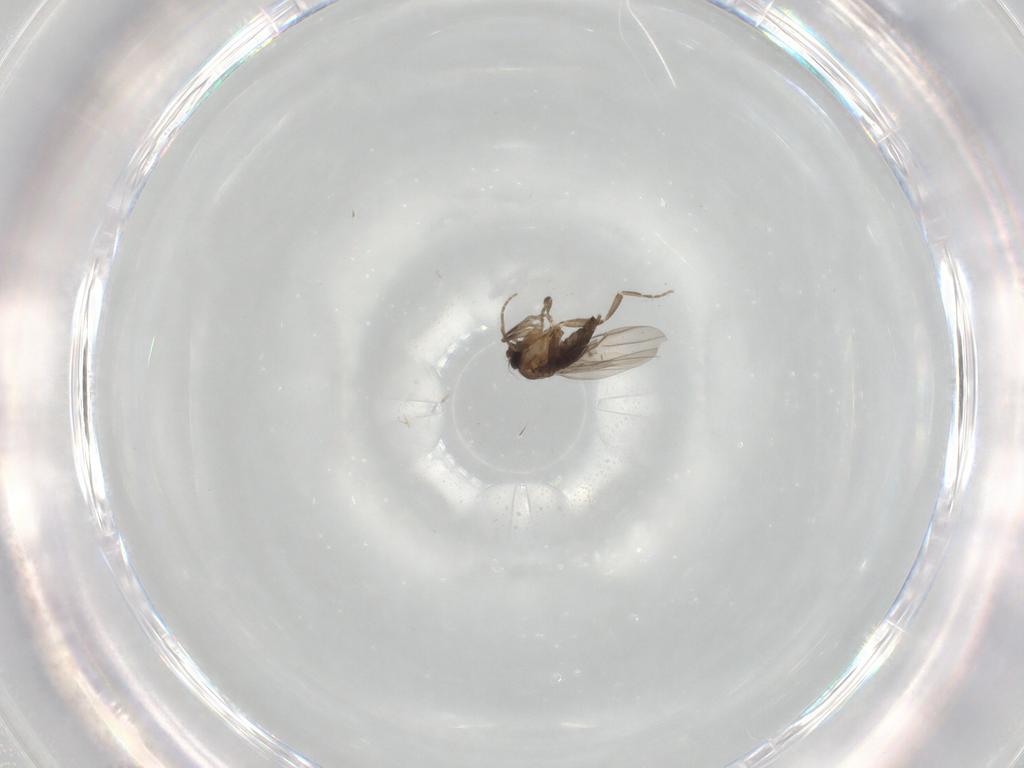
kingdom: Animalia
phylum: Arthropoda
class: Insecta
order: Diptera
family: Phoridae
